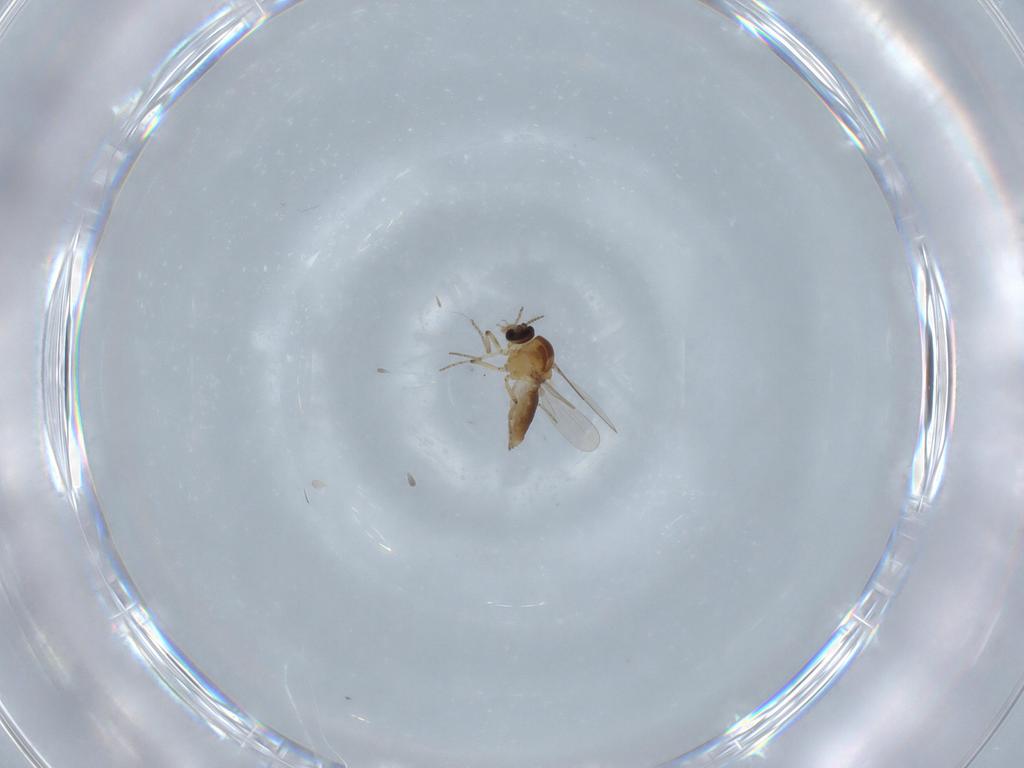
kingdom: Animalia
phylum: Arthropoda
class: Insecta
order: Diptera
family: Ceratopogonidae
